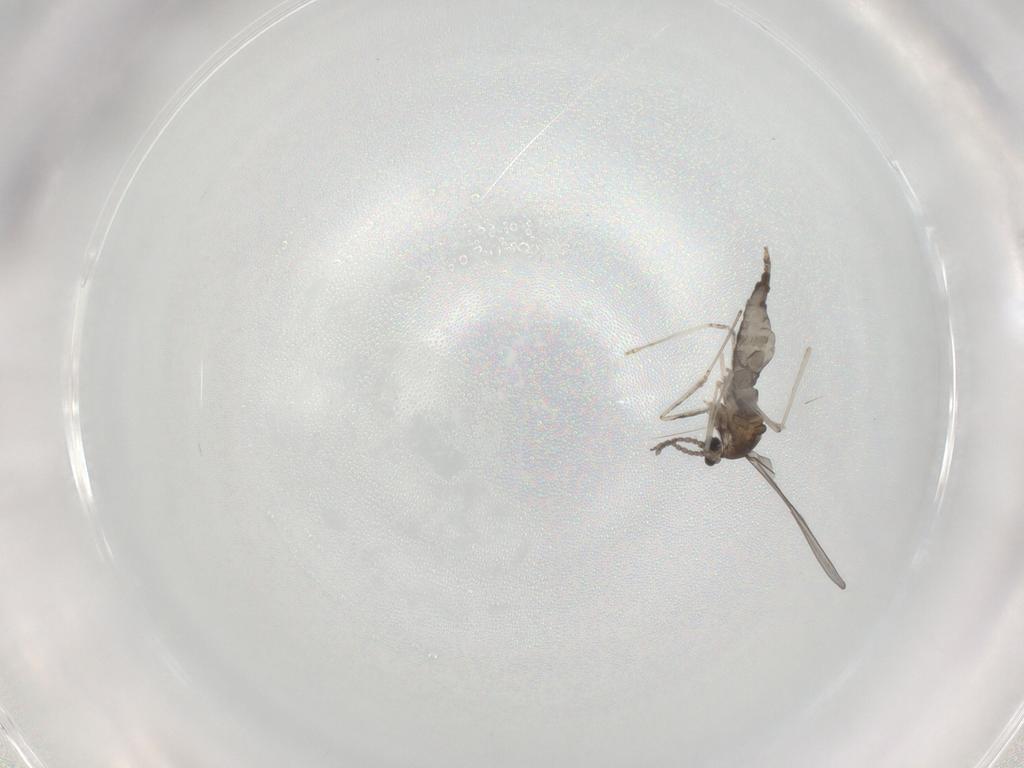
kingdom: Animalia
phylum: Arthropoda
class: Insecta
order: Diptera
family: Cecidomyiidae
